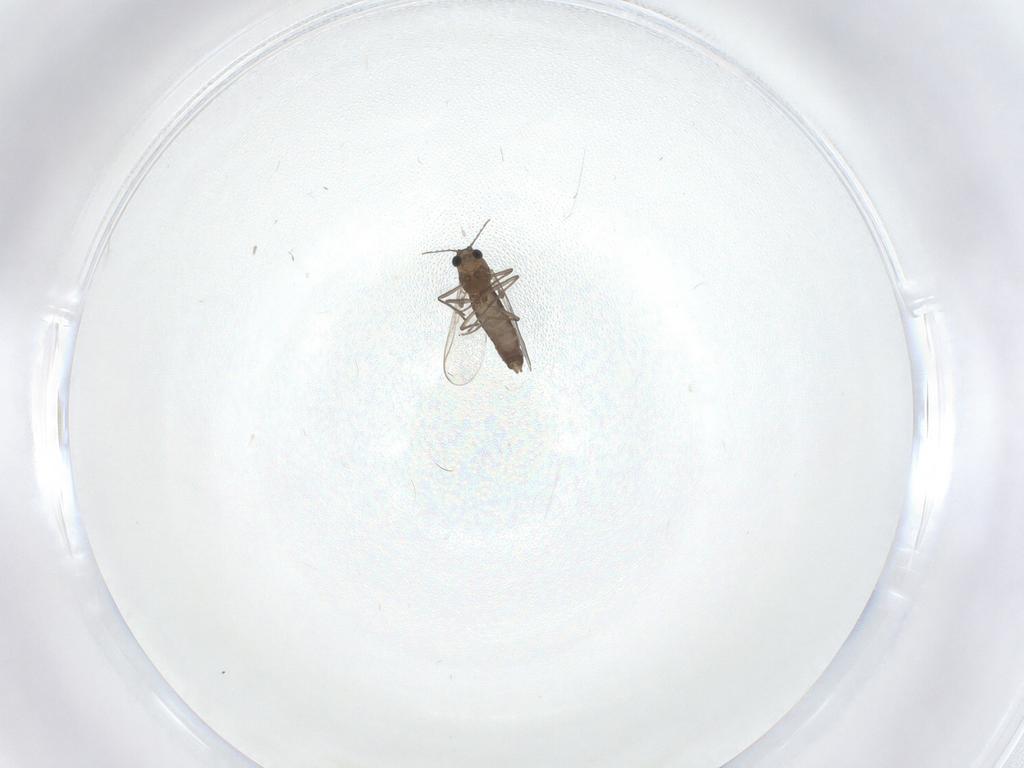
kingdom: Animalia
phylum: Arthropoda
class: Insecta
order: Diptera
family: Chironomidae
